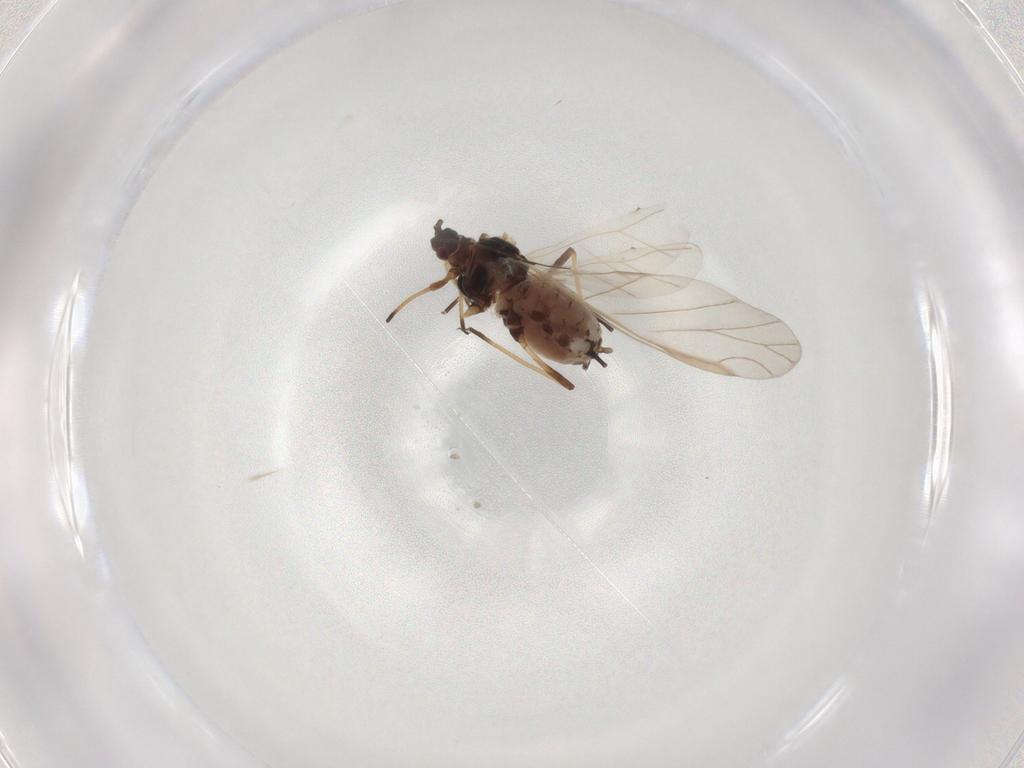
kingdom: Animalia
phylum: Arthropoda
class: Insecta
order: Hemiptera
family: Aphididae
